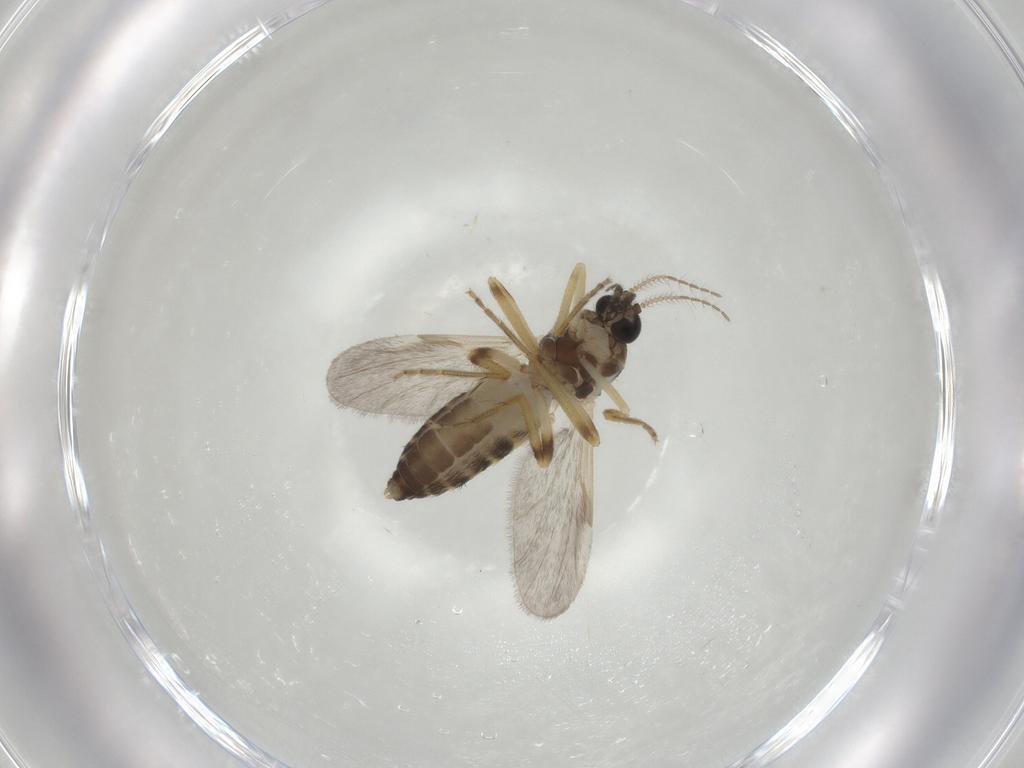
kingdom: Animalia
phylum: Arthropoda
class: Insecta
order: Diptera
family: Ceratopogonidae
